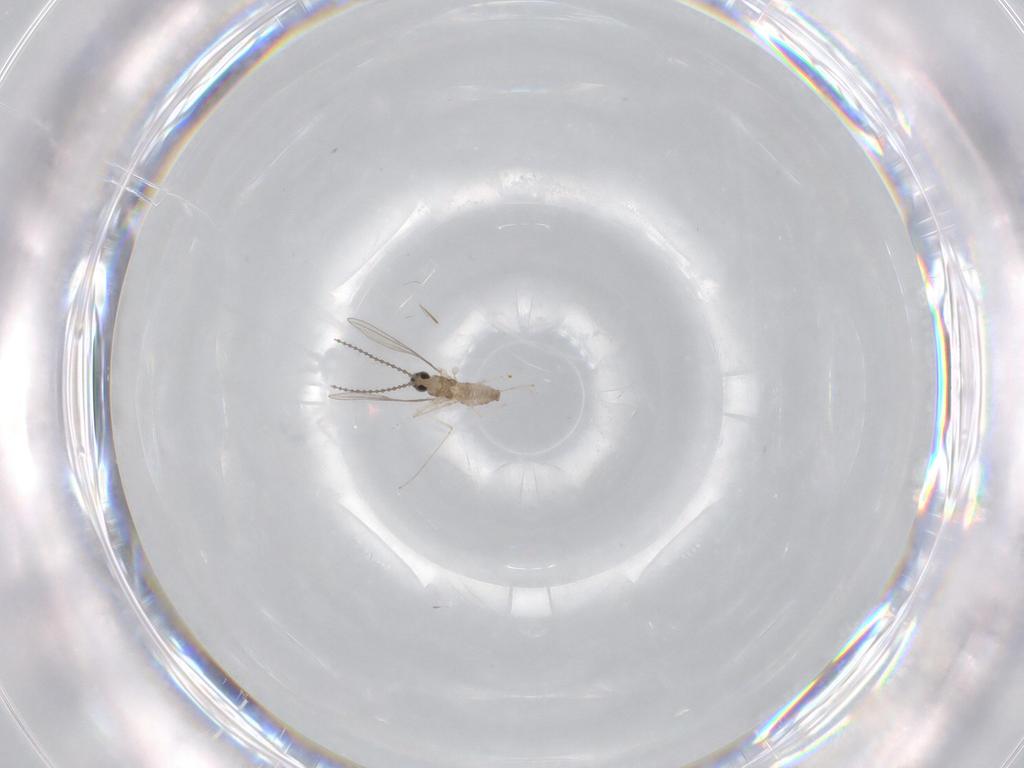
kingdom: Animalia
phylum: Arthropoda
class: Insecta
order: Diptera
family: Cecidomyiidae
